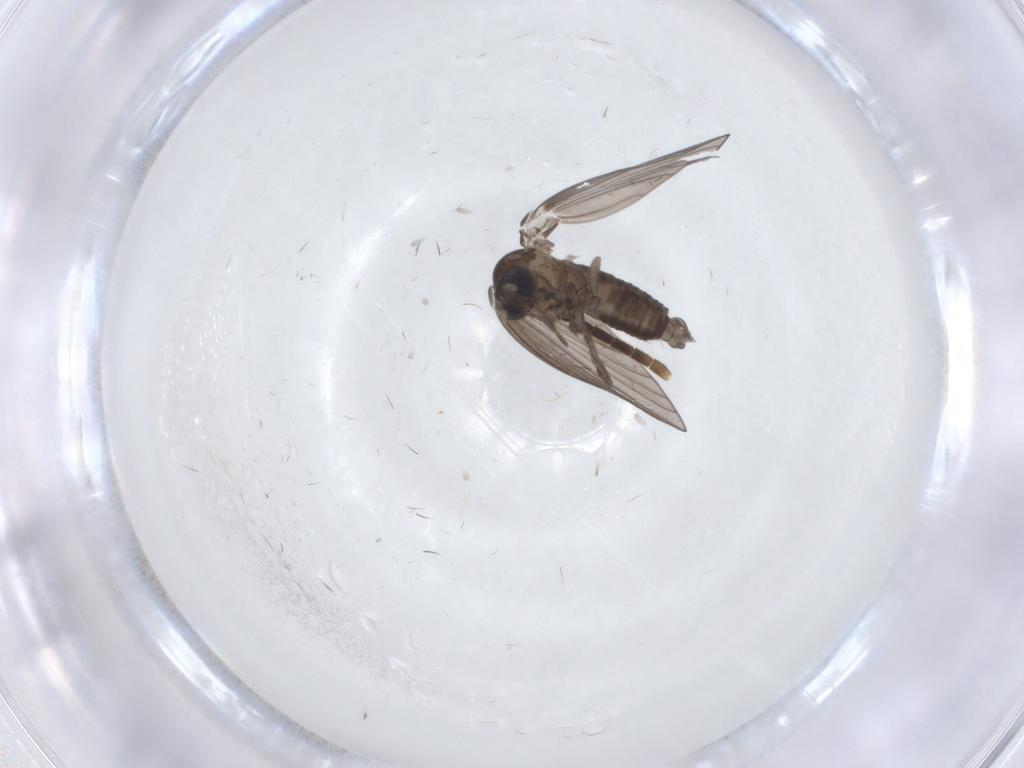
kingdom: Animalia
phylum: Arthropoda
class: Insecta
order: Diptera
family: Psychodidae
